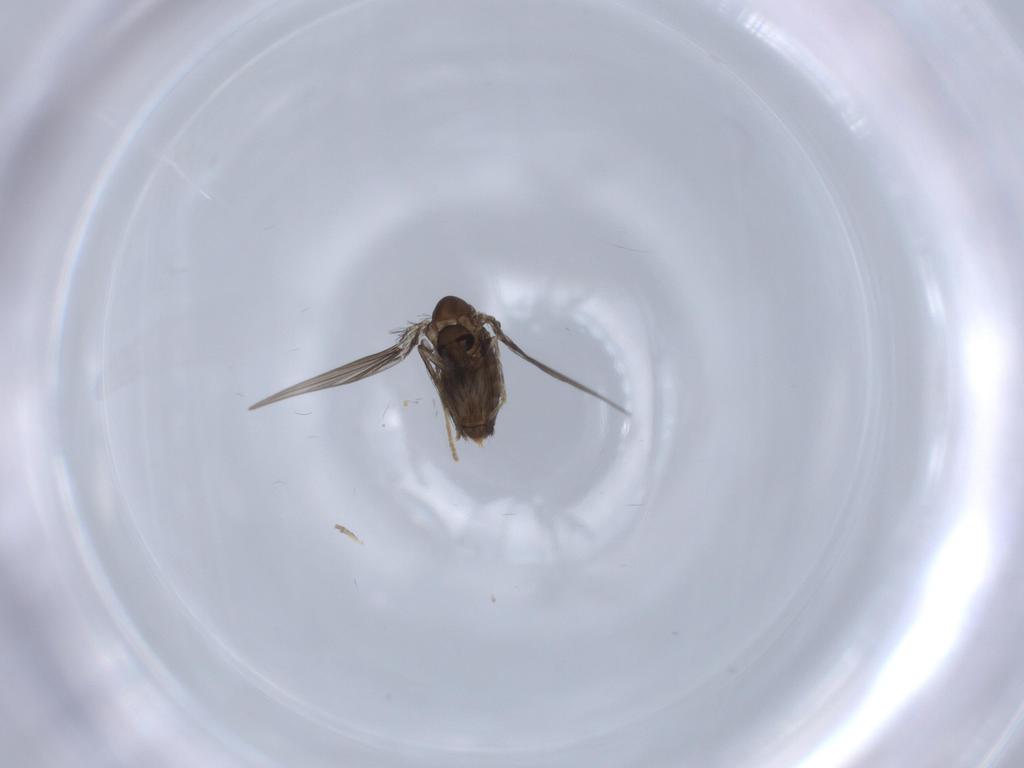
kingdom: Animalia
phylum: Arthropoda
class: Insecta
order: Diptera
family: Psychodidae
